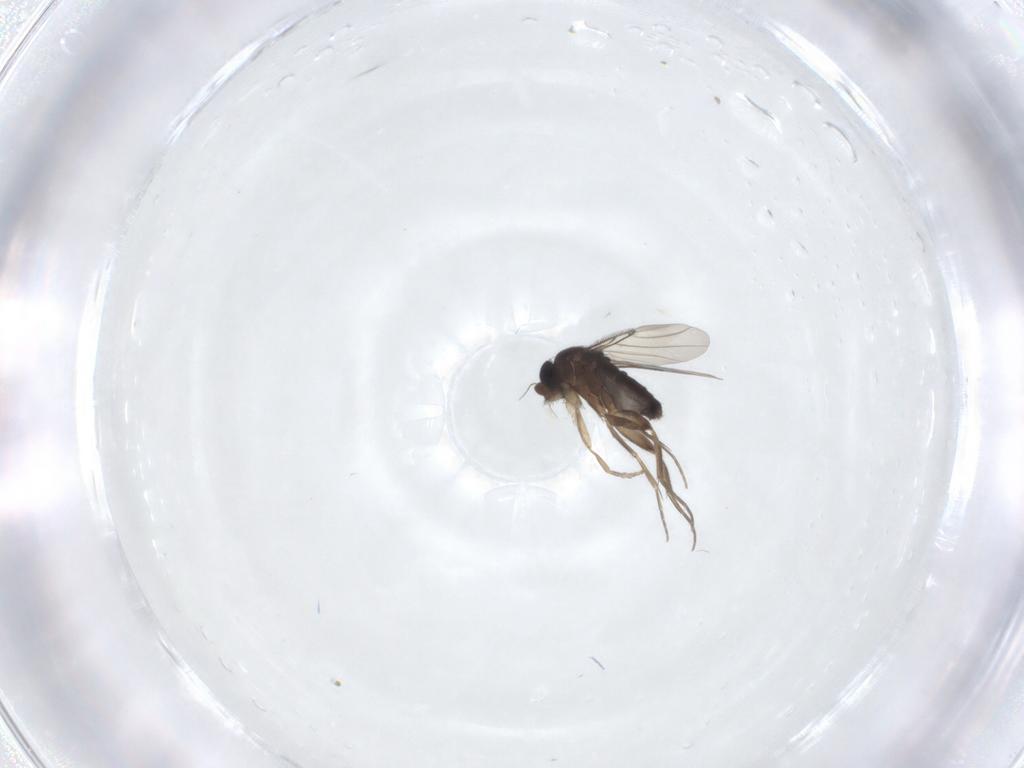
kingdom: Animalia
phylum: Arthropoda
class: Insecta
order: Diptera
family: Phoridae
